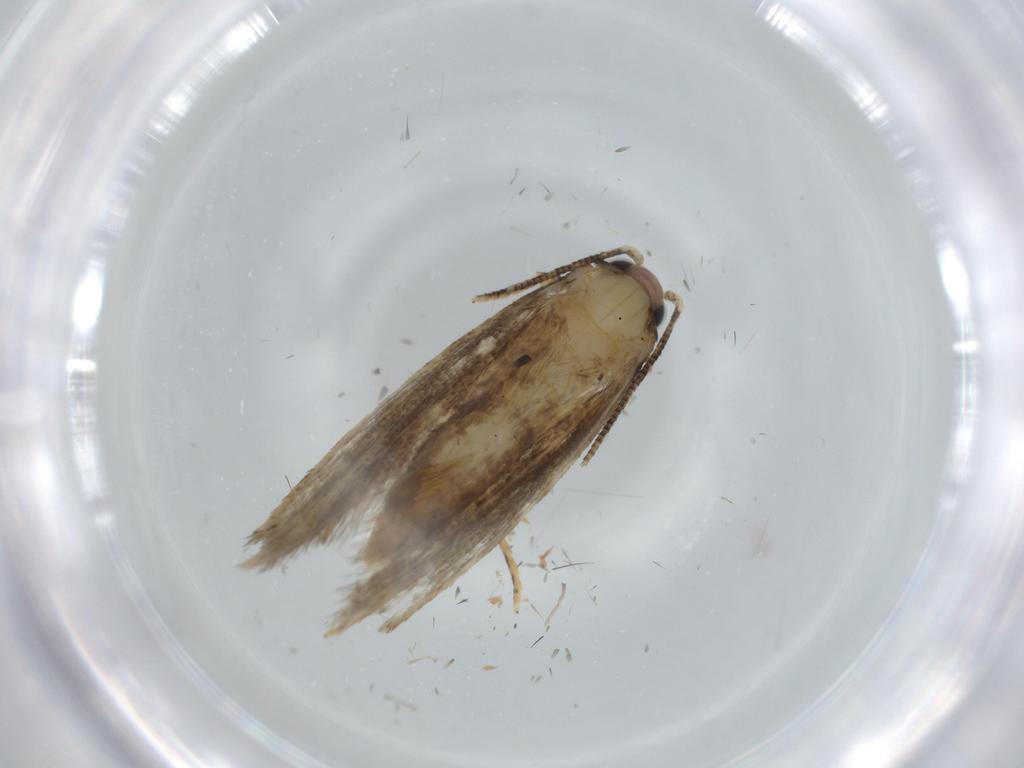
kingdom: Animalia
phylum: Arthropoda
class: Insecta
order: Lepidoptera
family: Tineidae
